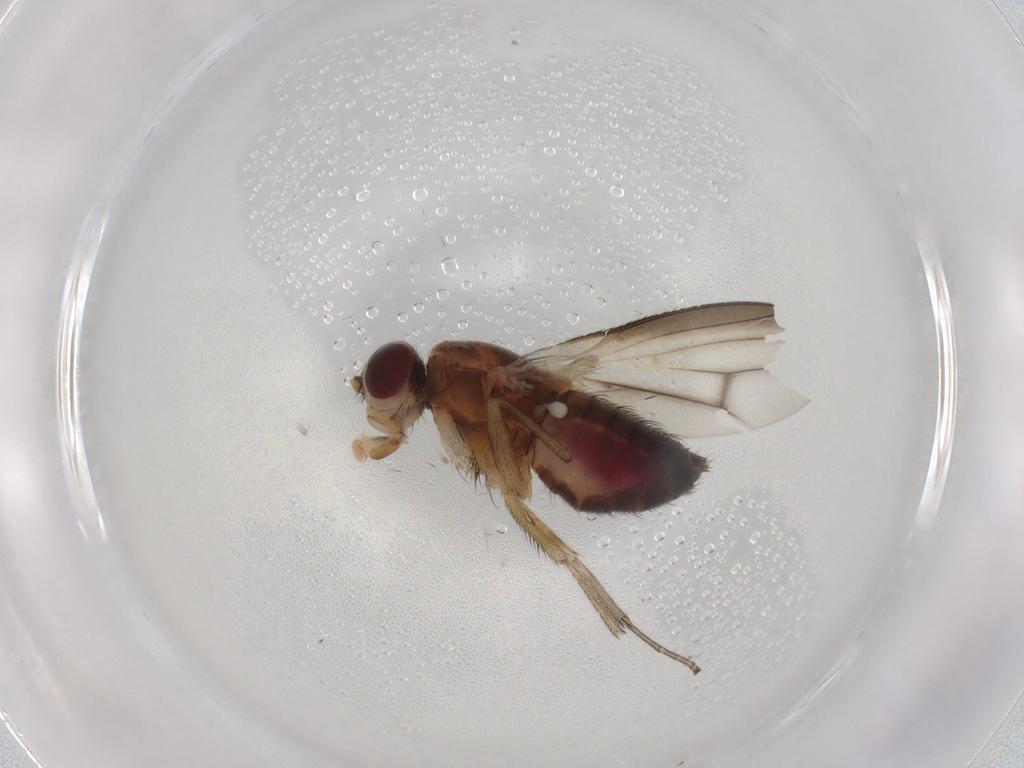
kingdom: Animalia
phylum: Arthropoda
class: Insecta
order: Diptera
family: Heleomyzidae
